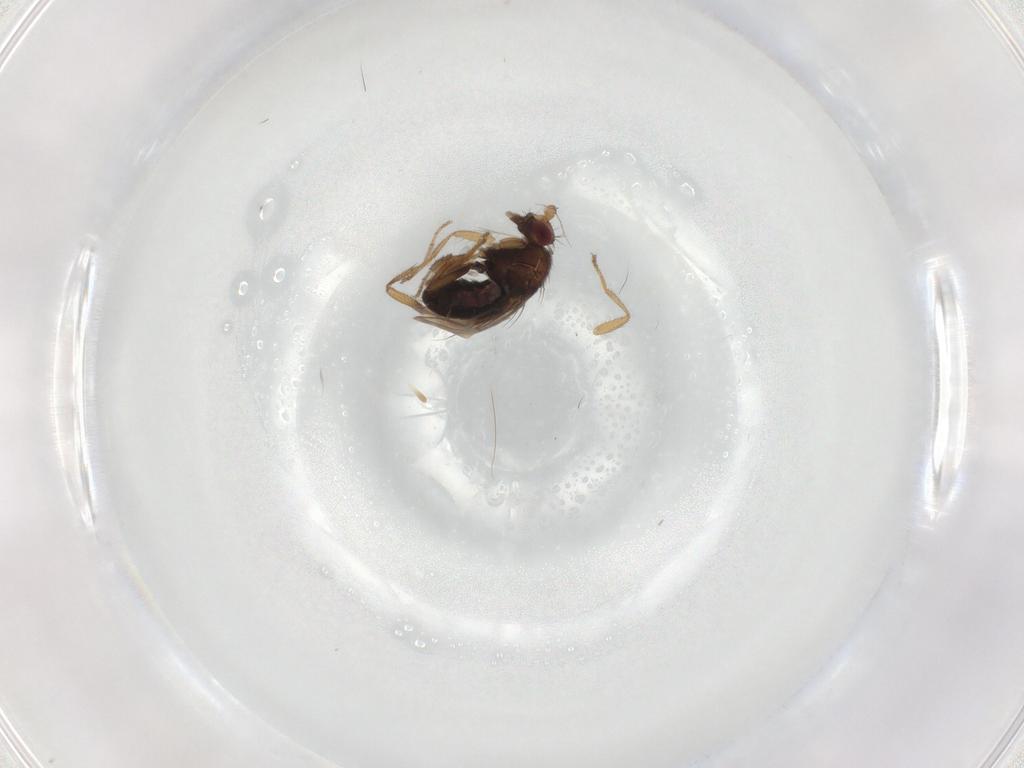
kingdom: Animalia
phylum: Arthropoda
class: Insecta
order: Diptera
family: Agromyzidae
